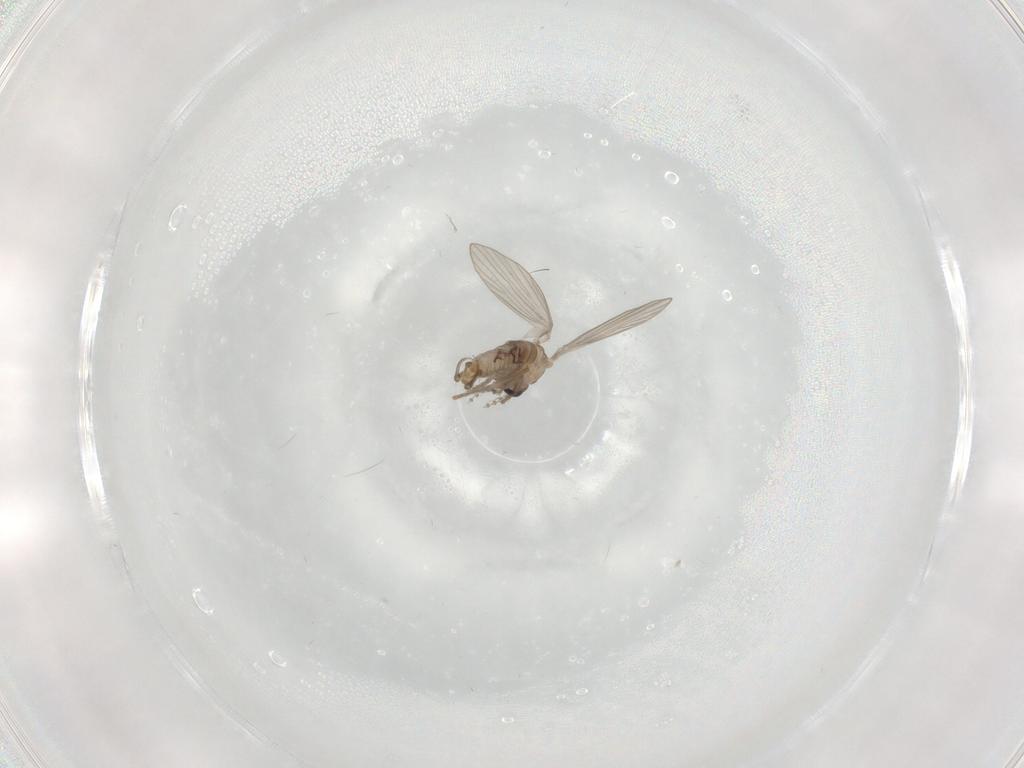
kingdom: Animalia
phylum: Arthropoda
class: Insecta
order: Diptera
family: Psychodidae
